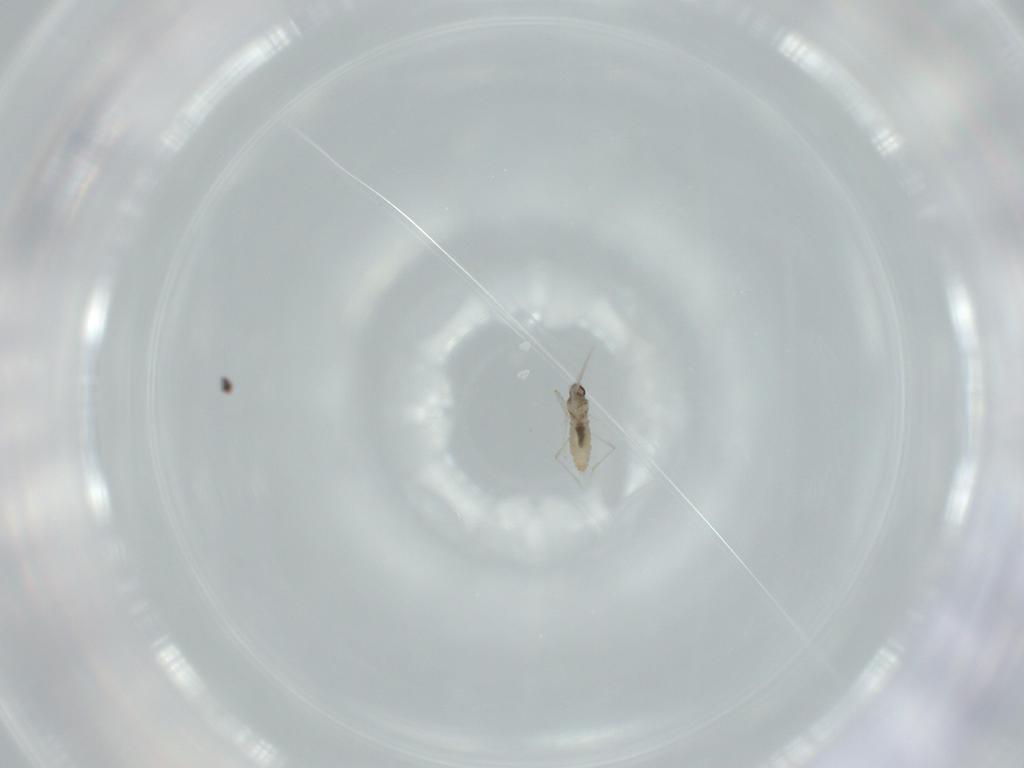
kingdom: Animalia
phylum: Arthropoda
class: Insecta
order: Diptera
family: Cecidomyiidae
